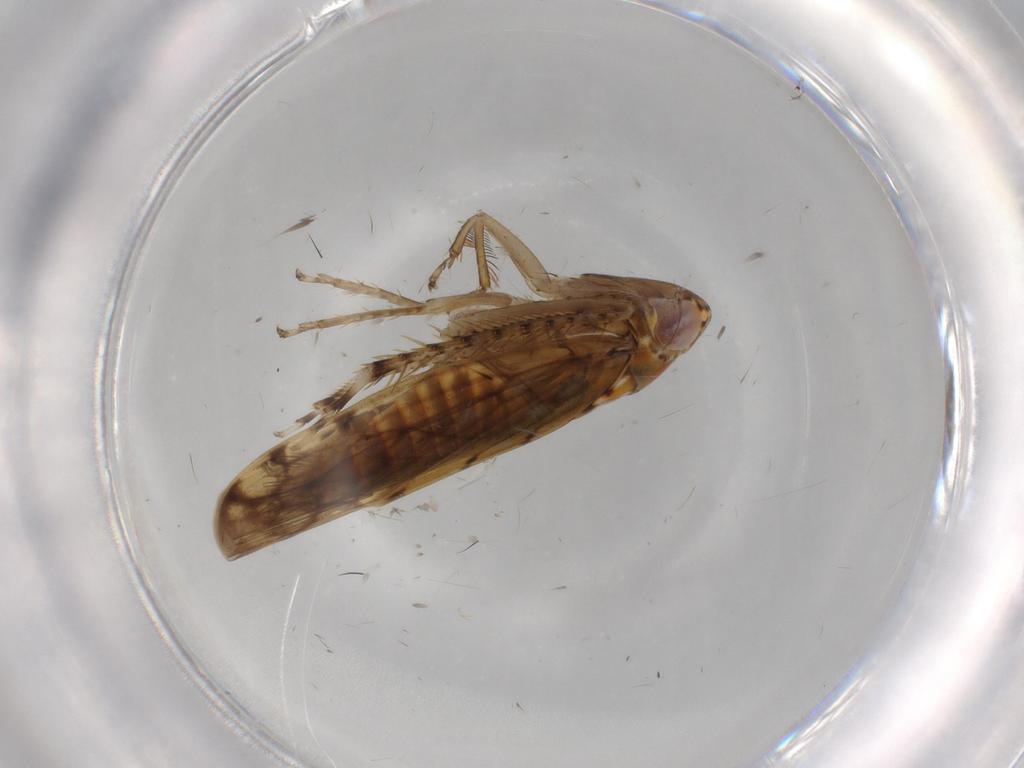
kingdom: Animalia
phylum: Arthropoda
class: Insecta
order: Hemiptera
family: Cicadellidae
